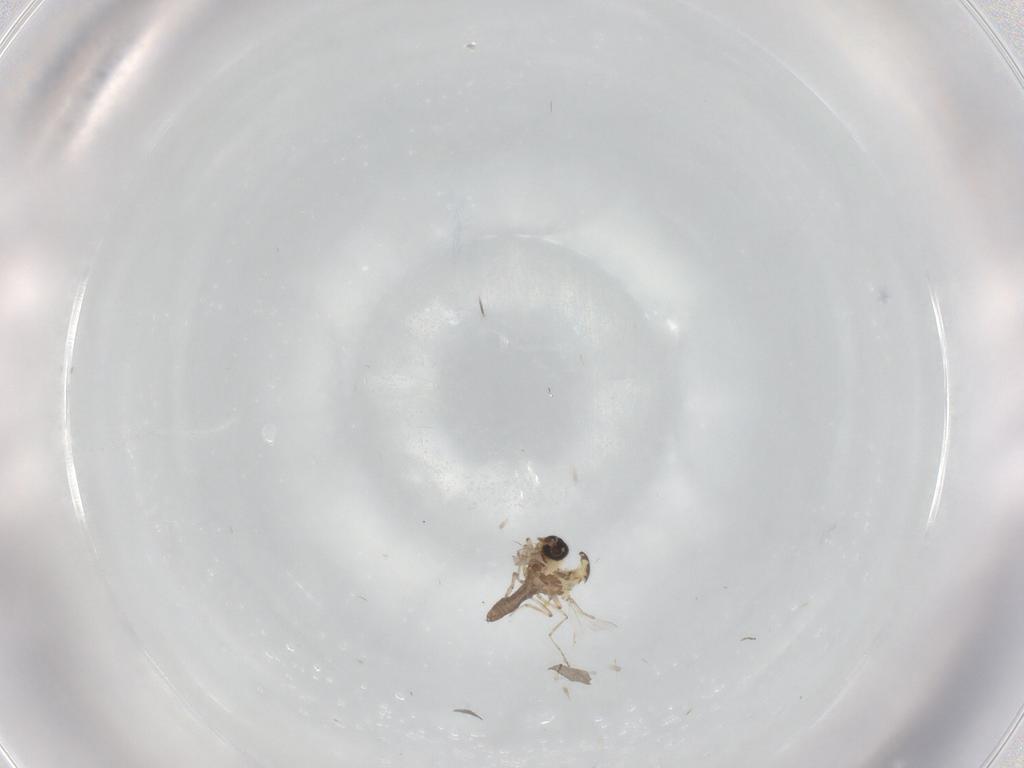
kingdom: Animalia
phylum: Arthropoda
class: Insecta
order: Diptera
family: Ceratopogonidae
